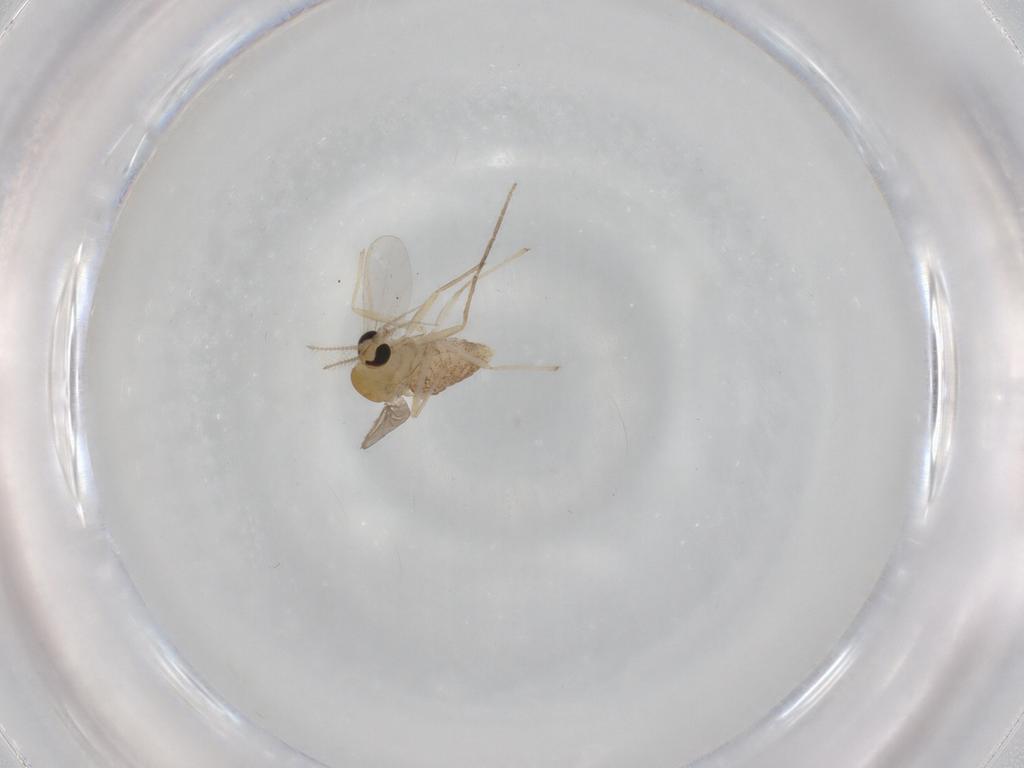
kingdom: Animalia
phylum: Arthropoda
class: Insecta
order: Diptera
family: Chironomidae
